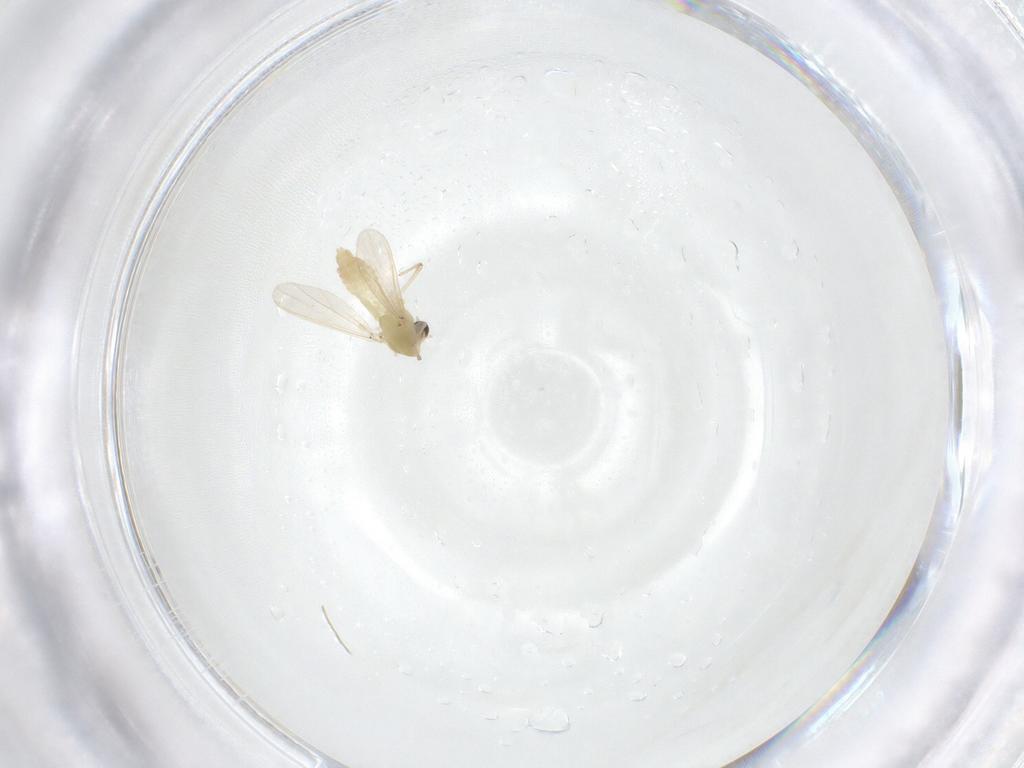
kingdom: Animalia
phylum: Arthropoda
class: Insecta
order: Diptera
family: Chironomidae
